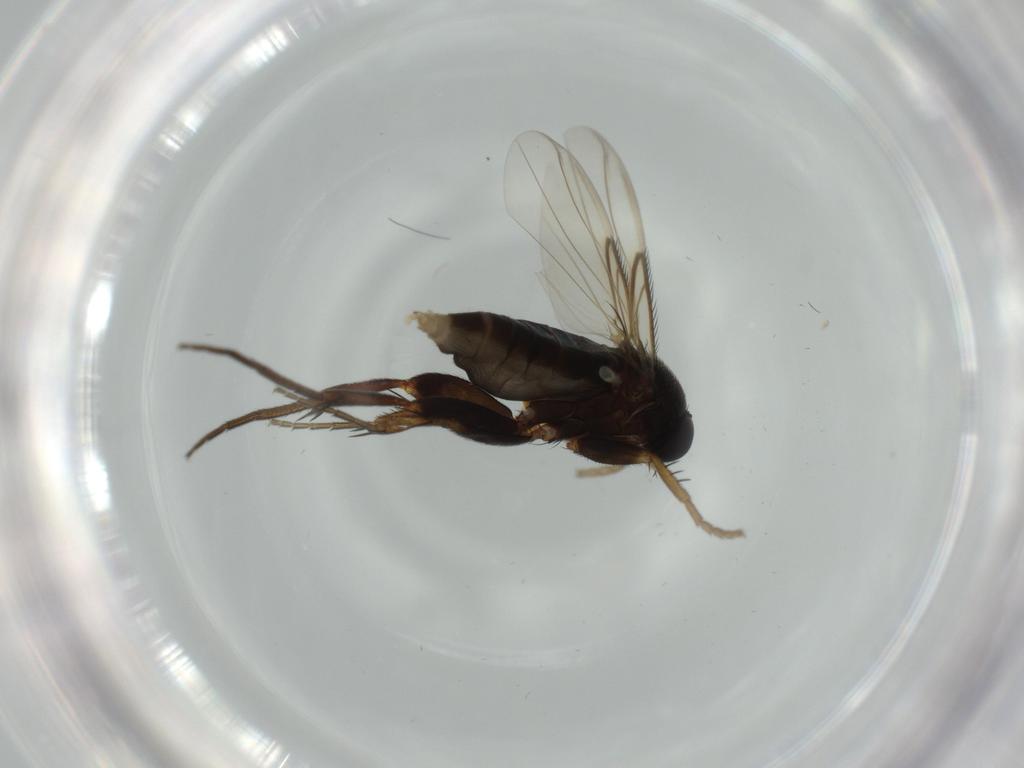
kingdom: Animalia
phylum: Arthropoda
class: Insecta
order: Diptera
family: Phoridae
